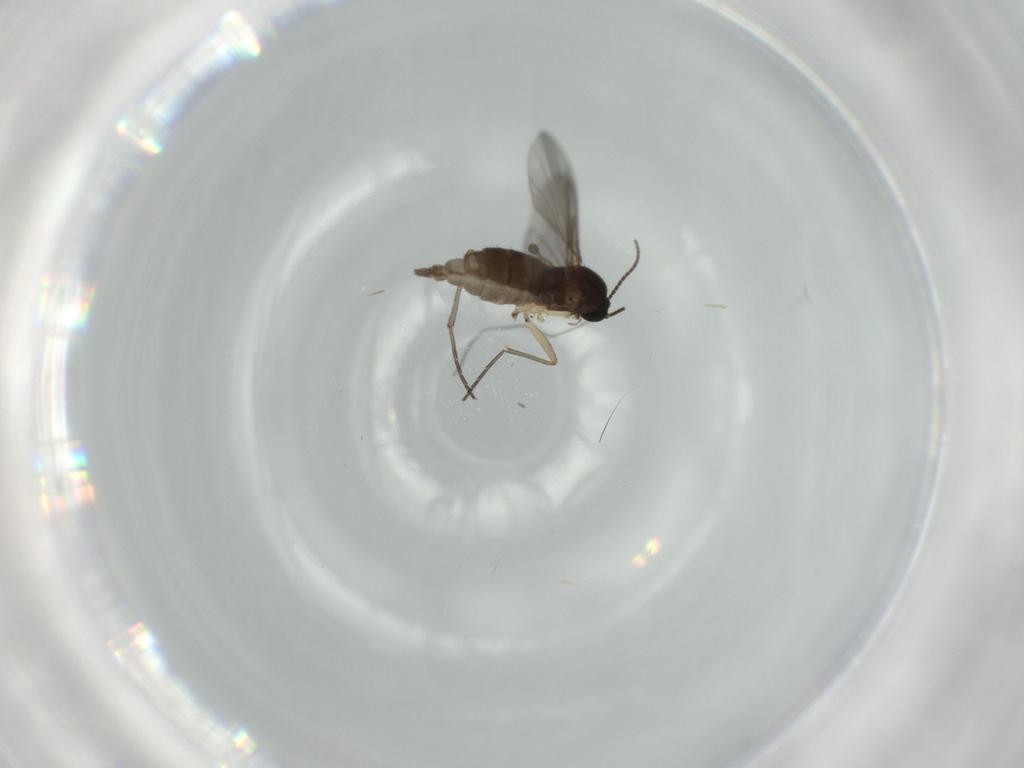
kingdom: Animalia
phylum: Arthropoda
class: Insecta
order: Diptera
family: Sciaridae
